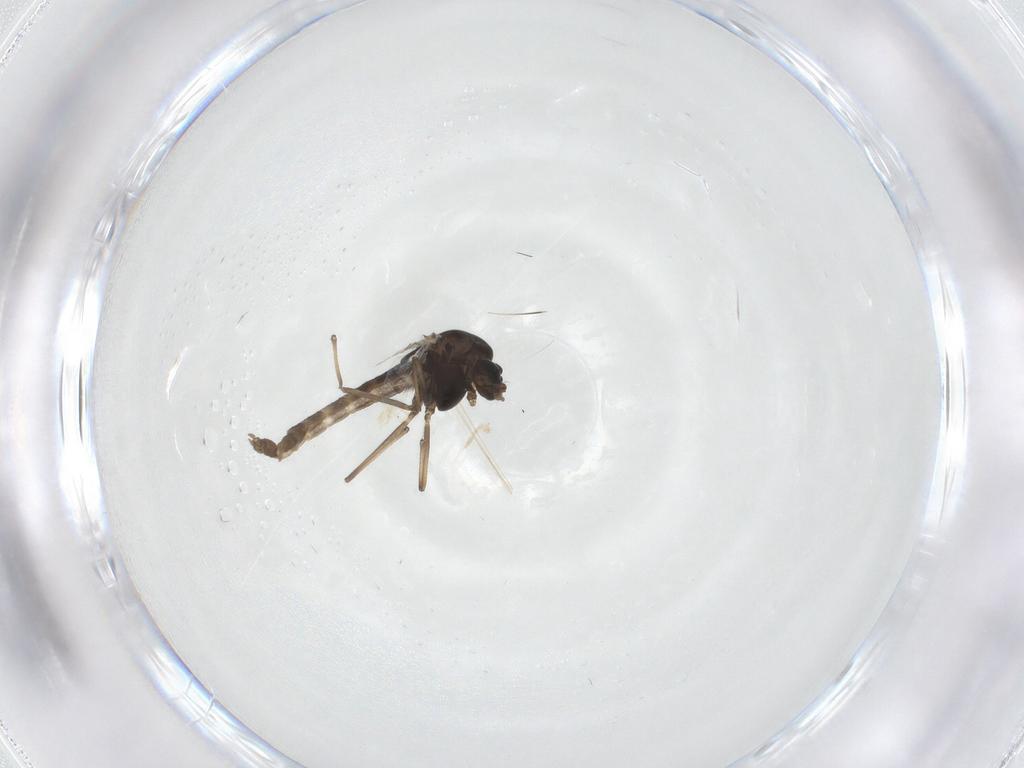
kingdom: Animalia
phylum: Arthropoda
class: Insecta
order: Diptera
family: Chironomidae
